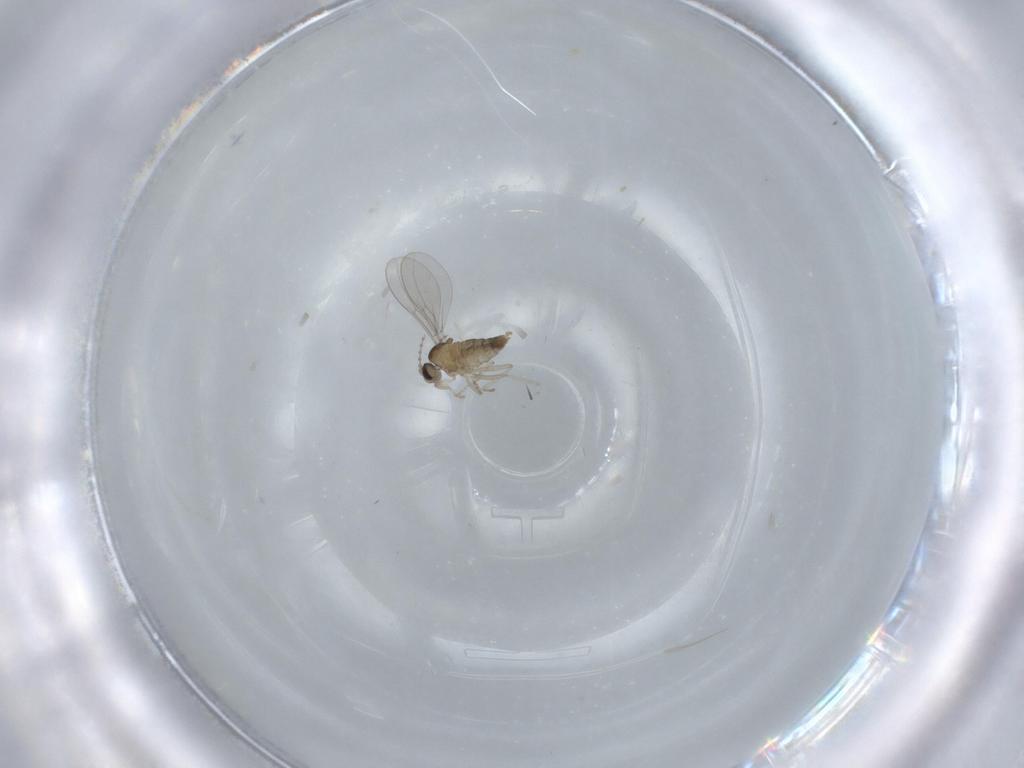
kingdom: Animalia
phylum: Arthropoda
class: Insecta
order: Diptera
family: Cecidomyiidae
